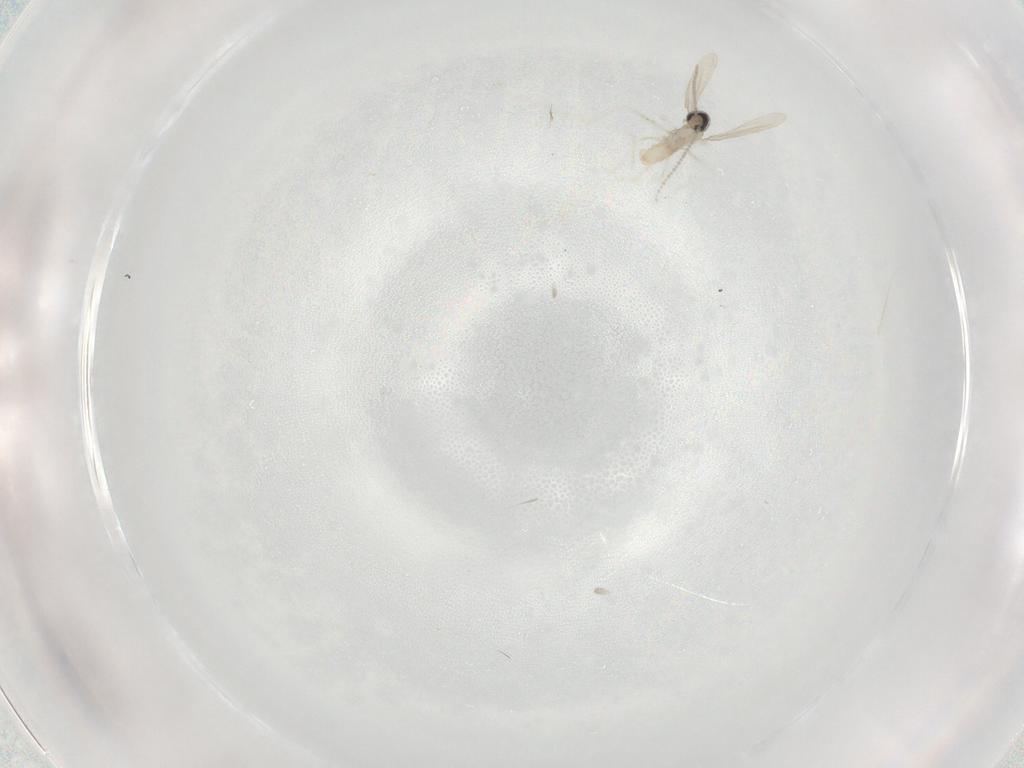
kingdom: Animalia
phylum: Arthropoda
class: Insecta
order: Diptera
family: Cecidomyiidae
